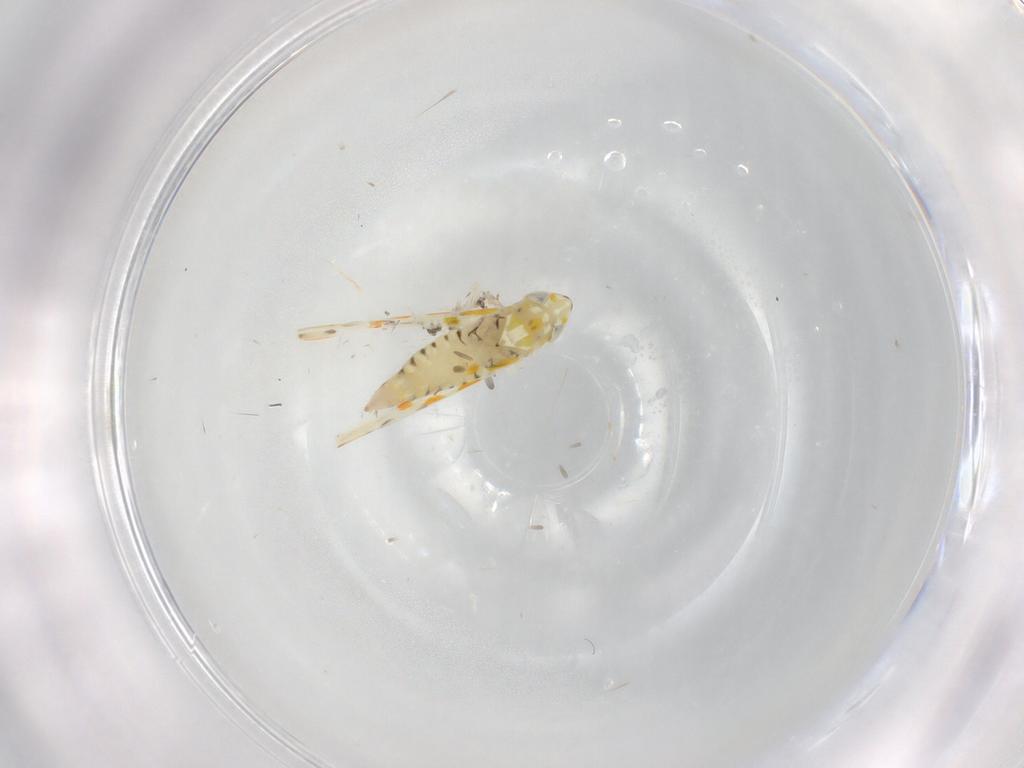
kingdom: Animalia
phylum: Arthropoda
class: Insecta
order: Hemiptera
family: Cicadellidae
